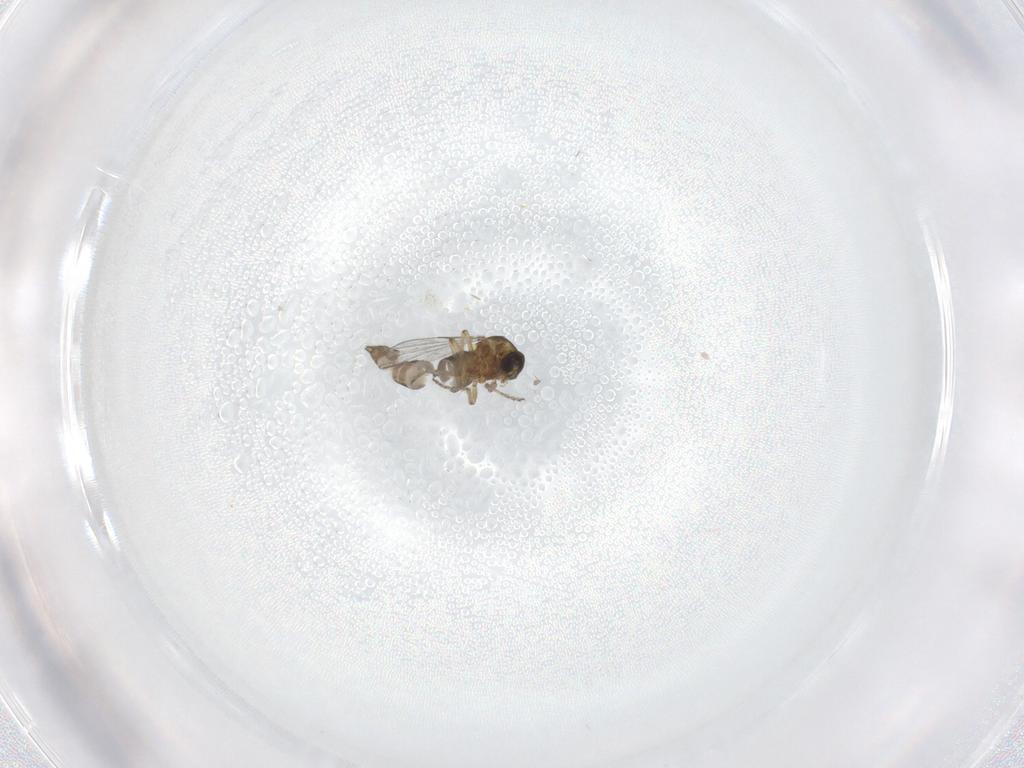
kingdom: Animalia
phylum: Arthropoda
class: Insecta
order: Diptera
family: Ceratopogonidae
